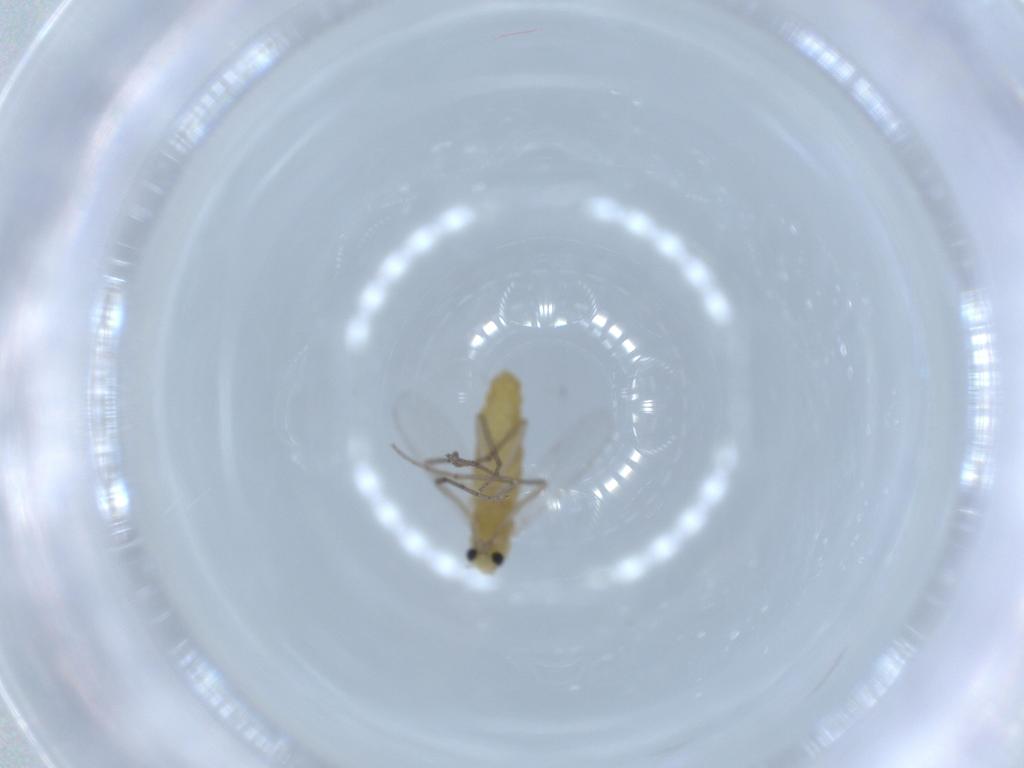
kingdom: Animalia
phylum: Arthropoda
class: Insecta
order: Diptera
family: Chironomidae
